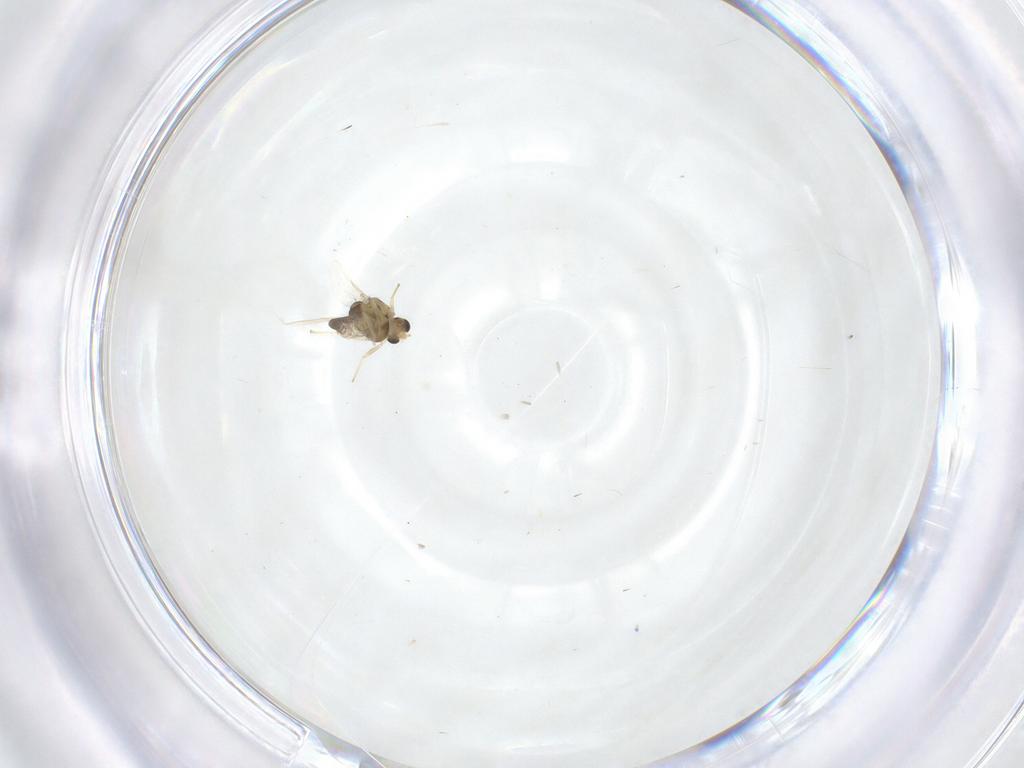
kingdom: Animalia
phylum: Arthropoda
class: Insecta
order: Diptera
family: Chironomidae
